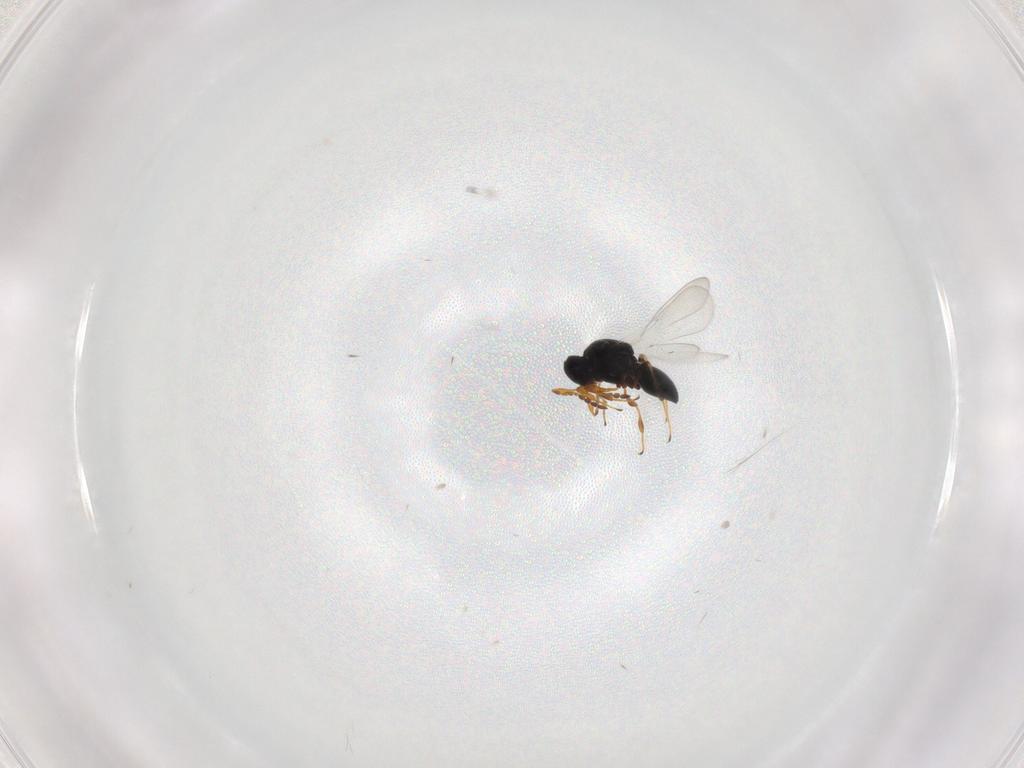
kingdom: Animalia
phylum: Arthropoda
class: Insecta
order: Hymenoptera
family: Platygastridae
